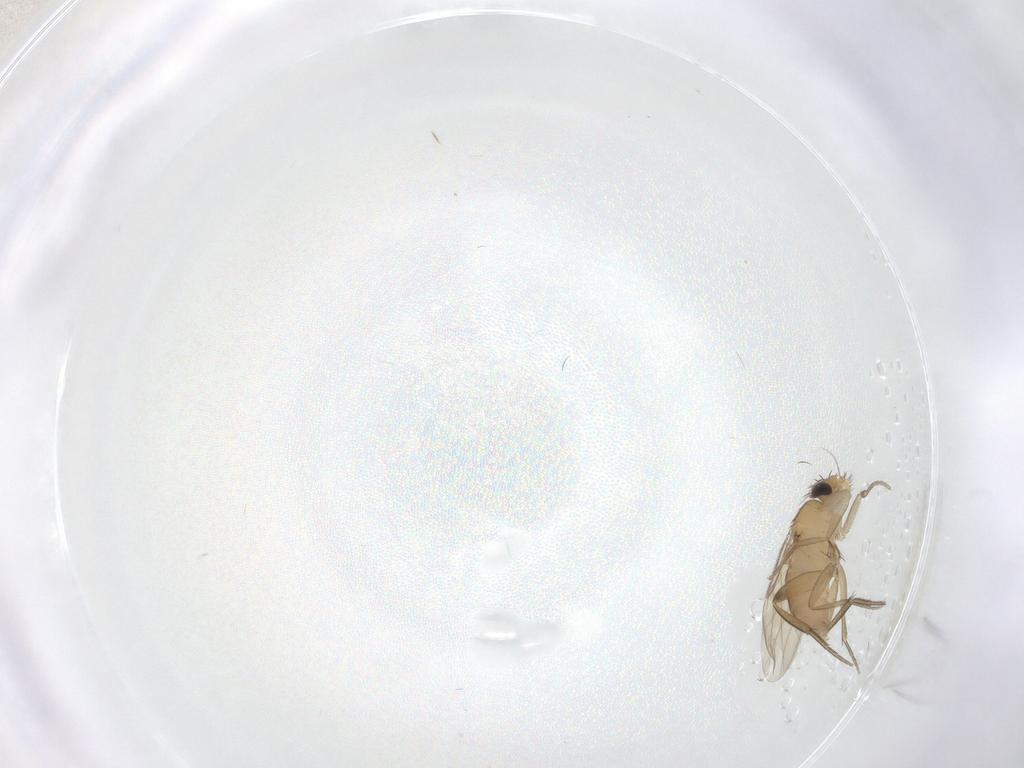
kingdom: Animalia
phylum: Arthropoda
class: Insecta
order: Diptera
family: Phoridae
